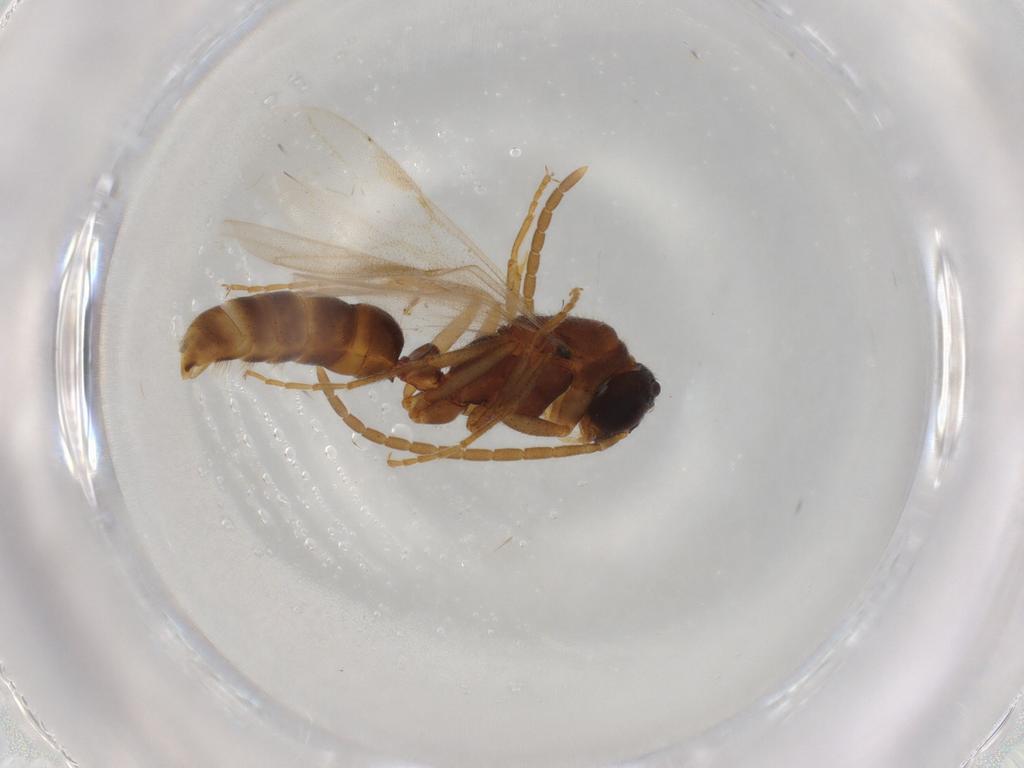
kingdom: Animalia
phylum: Arthropoda
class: Insecta
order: Hymenoptera
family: Formicidae
